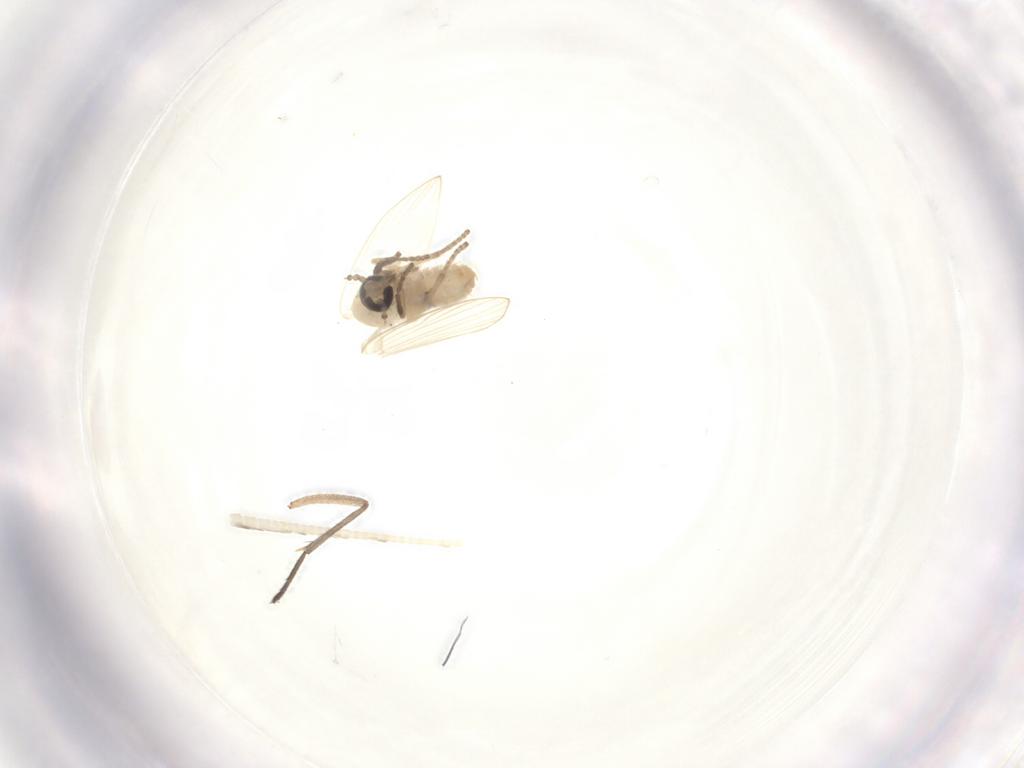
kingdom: Animalia
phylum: Arthropoda
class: Insecta
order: Diptera
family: Psychodidae
